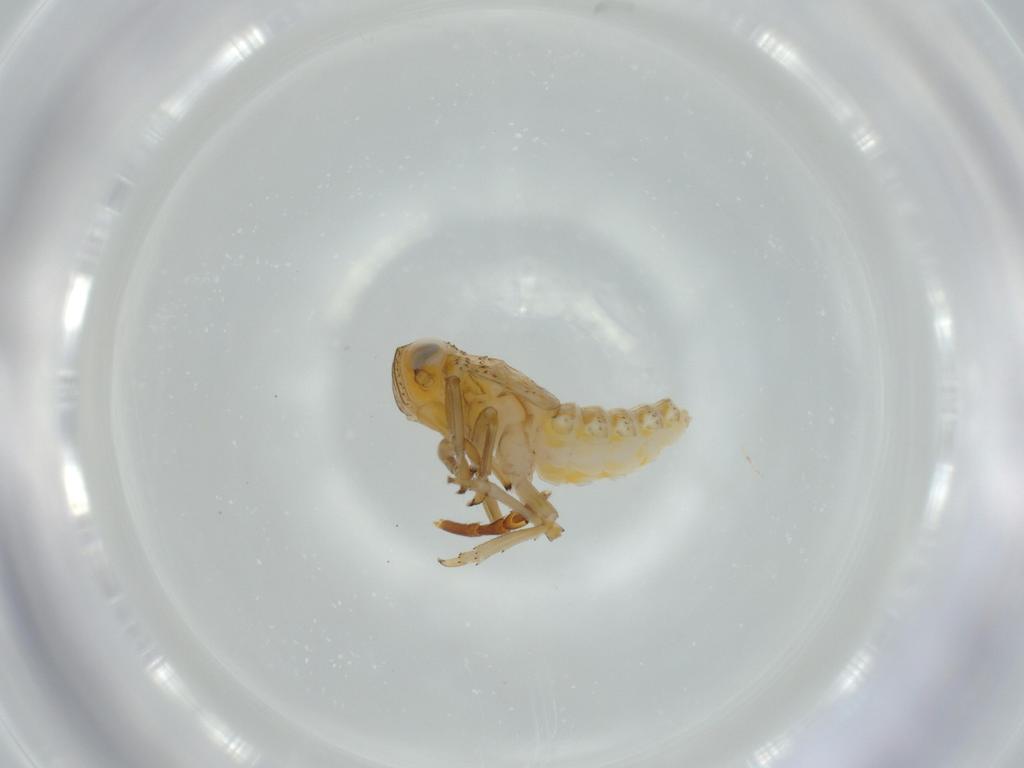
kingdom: Animalia
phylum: Arthropoda
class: Insecta
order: Hemiptera
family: Issidae
